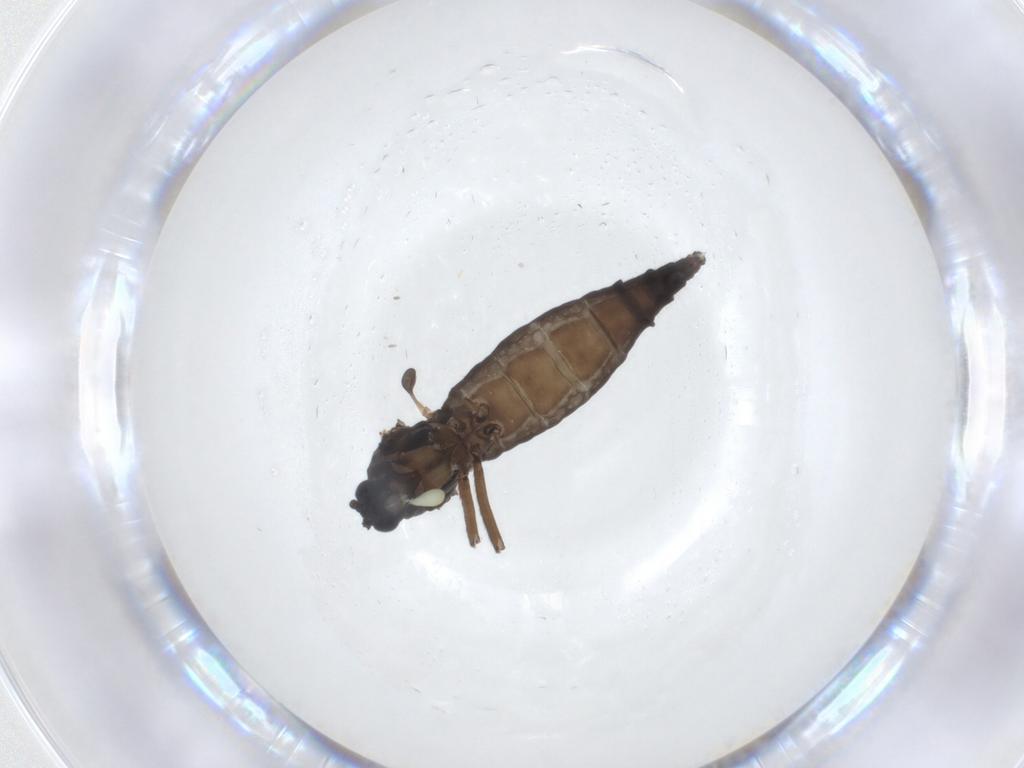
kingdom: Animalia
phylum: Arthropoda
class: Insecta
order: Diptera
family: Sciaridae
